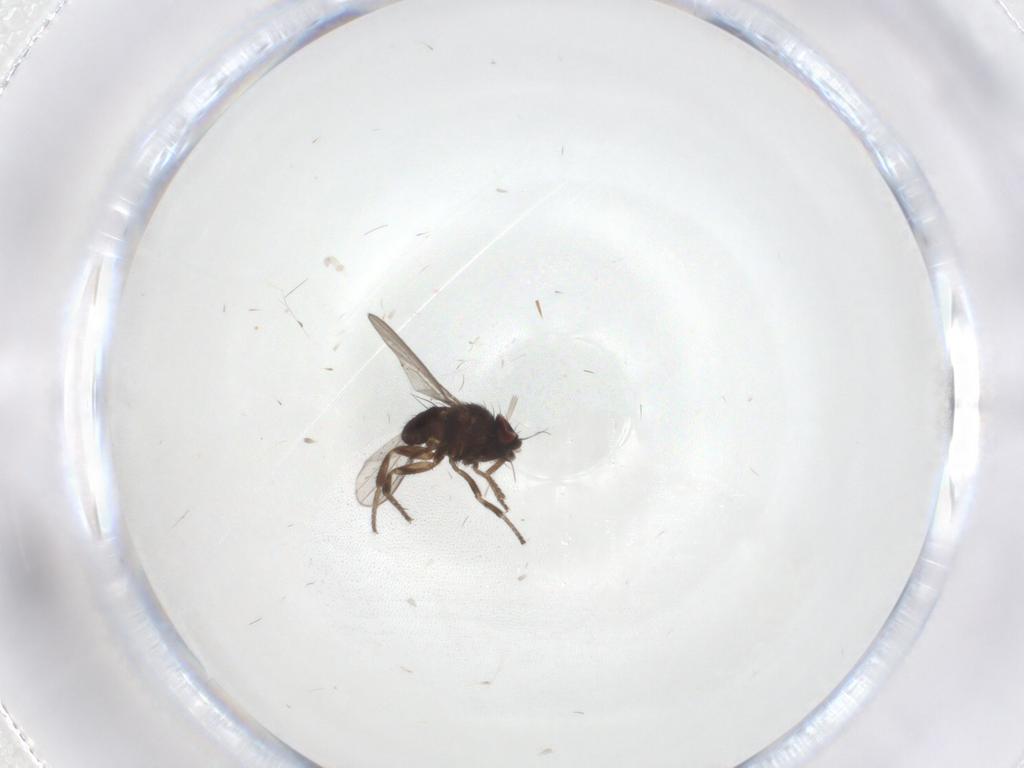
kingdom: Animalia
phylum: Arthropoda
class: Insecta
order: Diptera
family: Milichiidae
